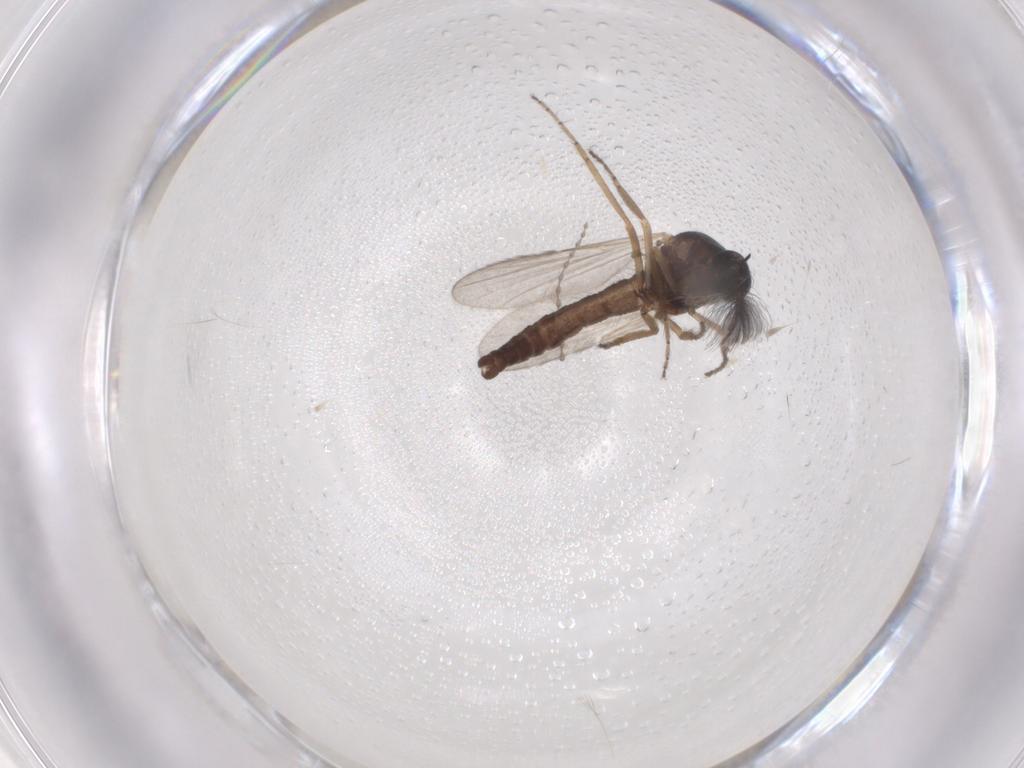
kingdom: Animalia
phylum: Arthropoda
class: Insecta
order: Diptera
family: Ceratopogonidae
